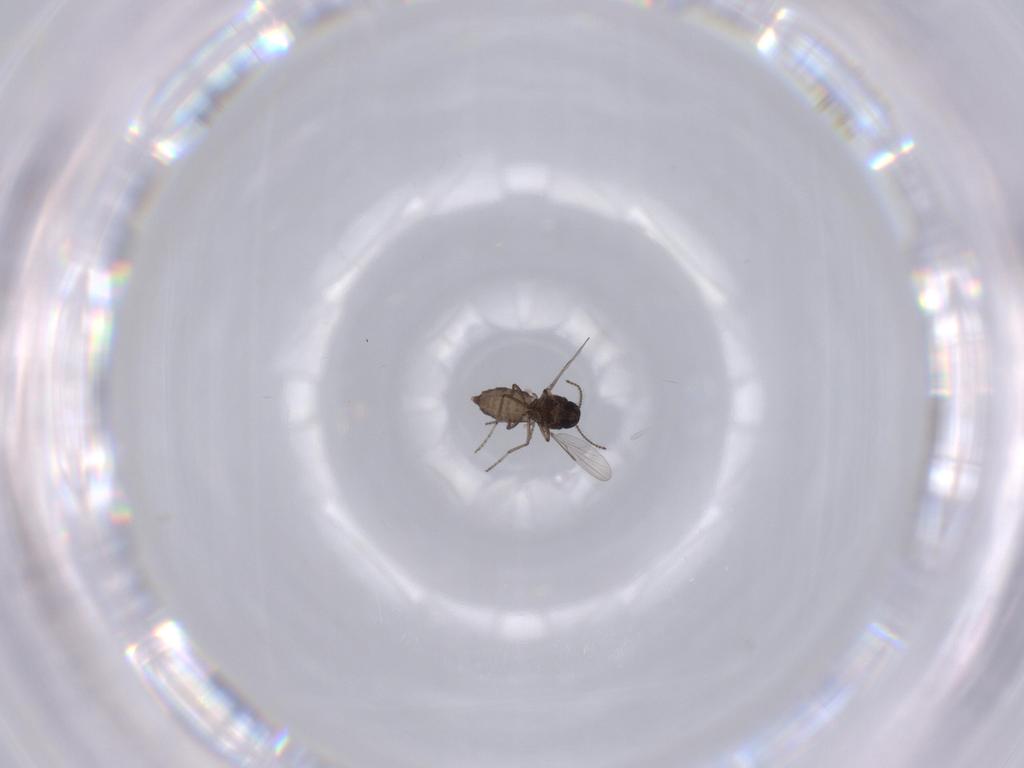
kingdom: Animalia
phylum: Arthropoda
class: Insecta
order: Diptera
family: Ceratopogonidae
